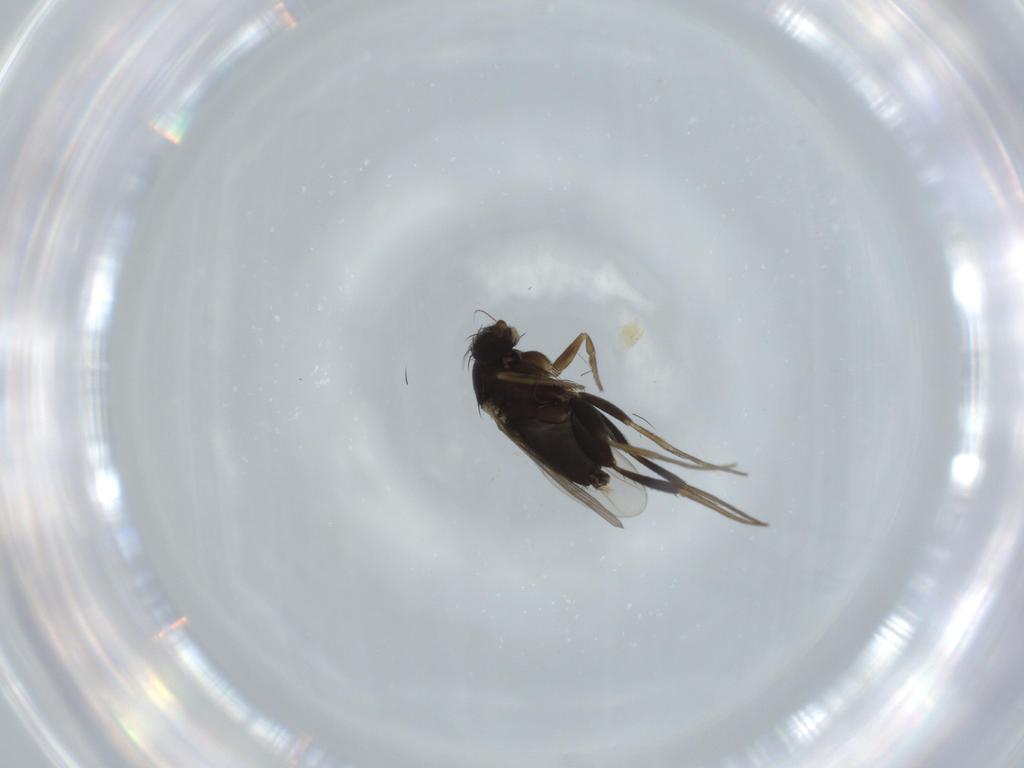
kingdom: Animalia
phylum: Arthropoda
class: Insecta
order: Diptera
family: Phoridae
